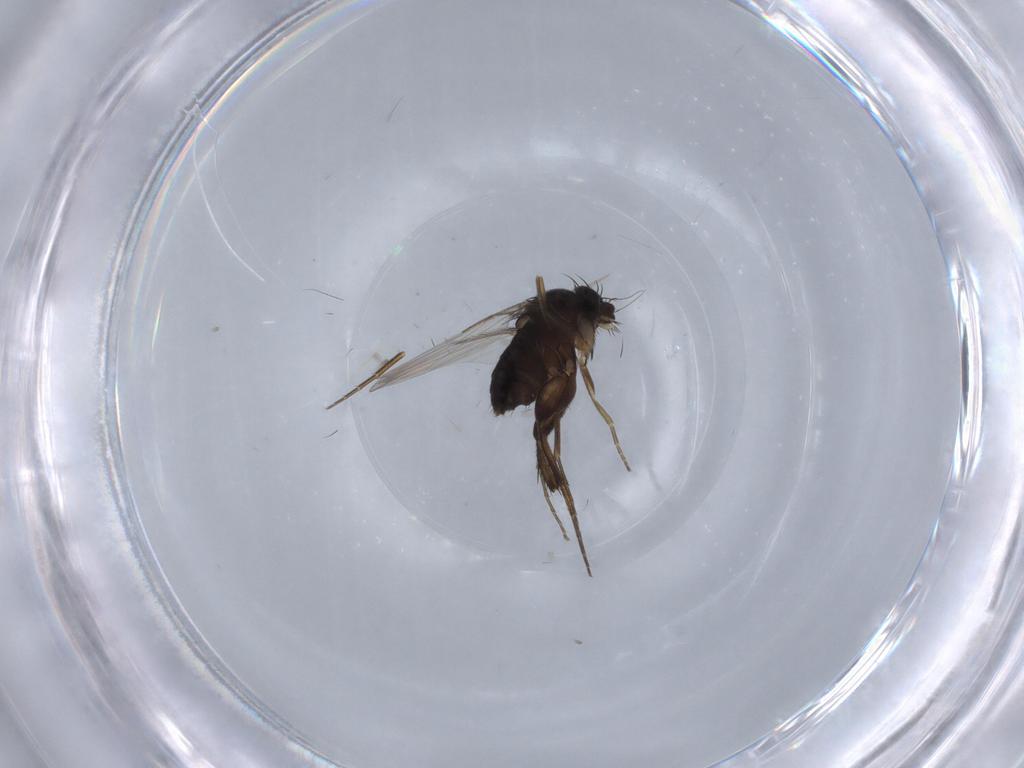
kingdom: Animalia
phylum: Arthropoda
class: Insecta
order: Diptera
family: Phoridae
